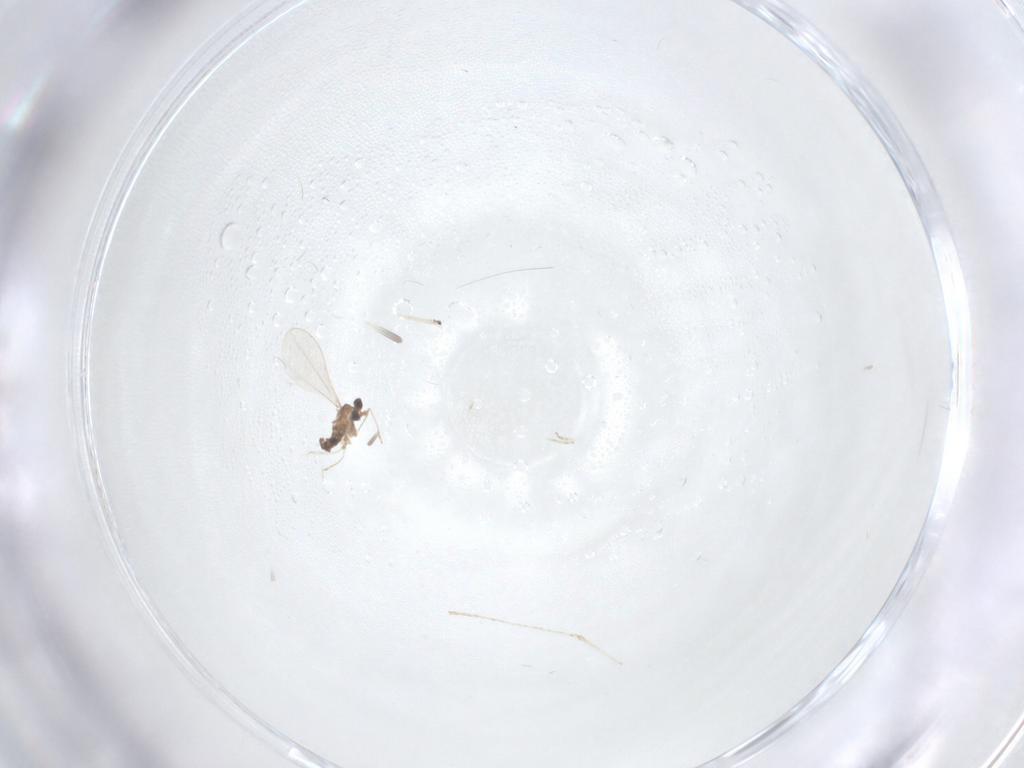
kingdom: Animalia
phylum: Arthropoda
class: Insecta
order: Diptera
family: Cecidomyiidae
